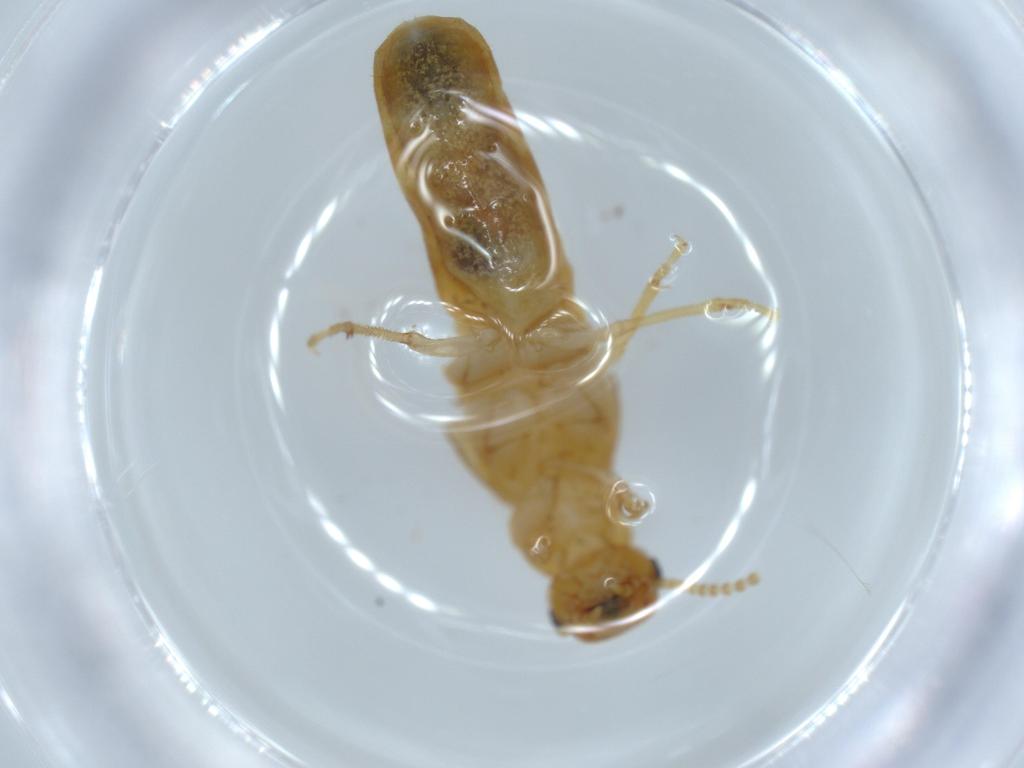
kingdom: Animalia
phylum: Arthropoda
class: Insecta
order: Blattodea
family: Kalotermitidae
